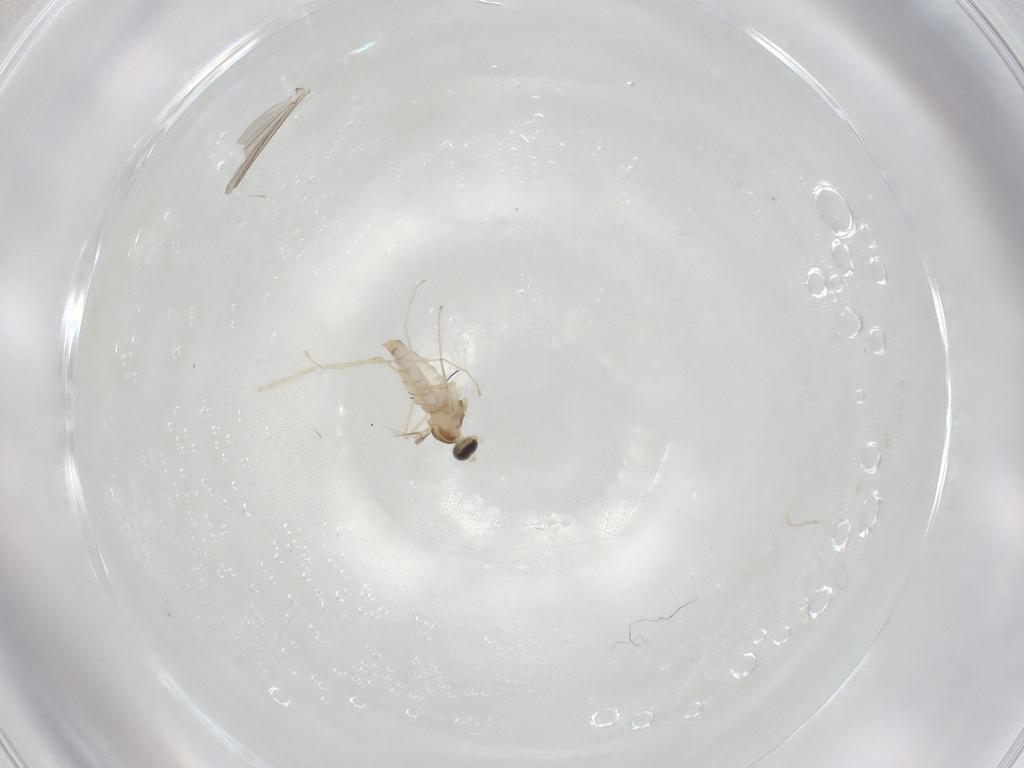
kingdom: Animalia
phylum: Arthropoda
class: Insecta
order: Diptera
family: Cecidomyiidae
